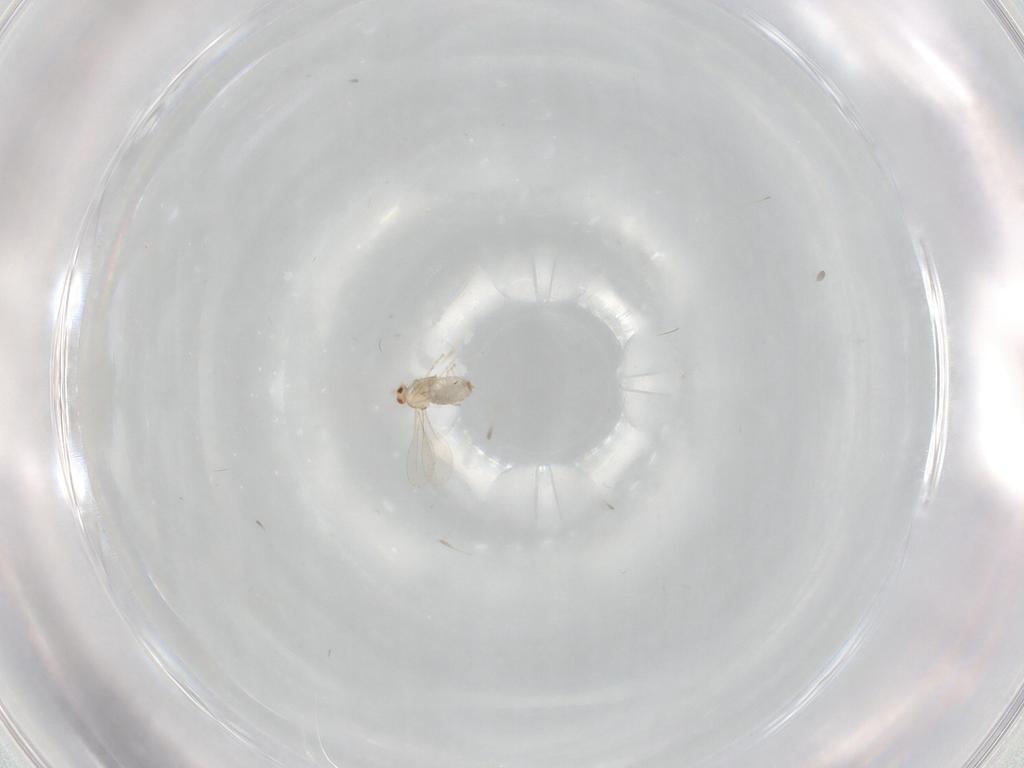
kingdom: Animalia
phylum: Arthropoda
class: Insecta
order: Diptera
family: Cecidomyiidae
